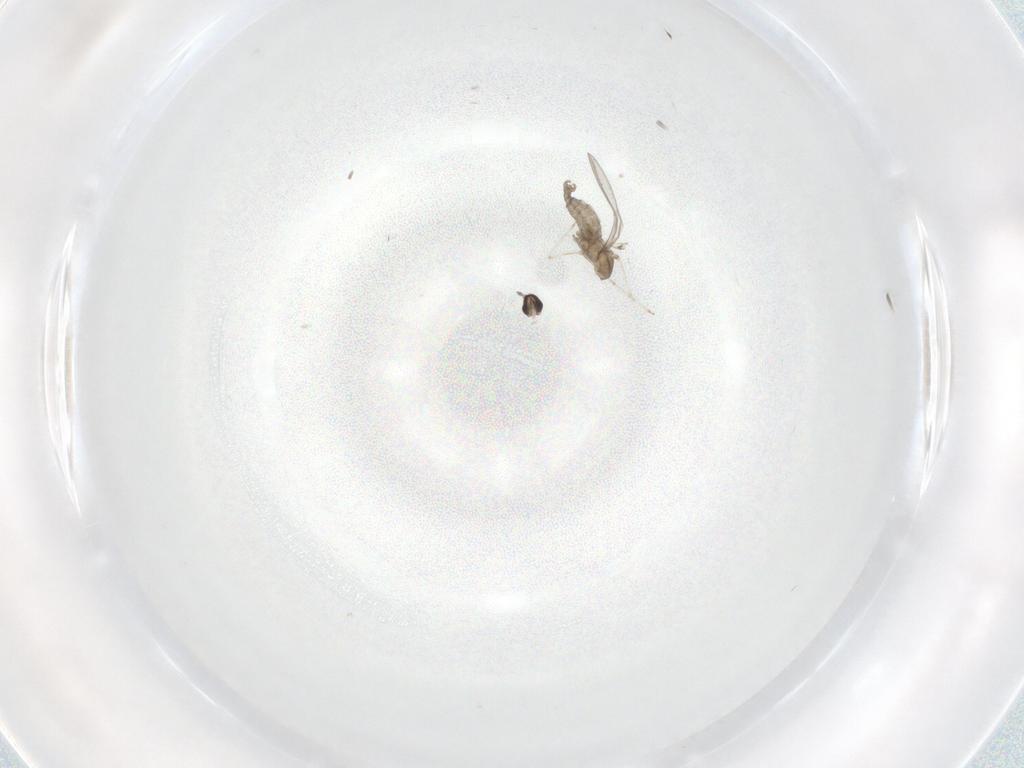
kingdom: Animalia
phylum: Arthropoda
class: Insecta
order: Diptera
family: Cecidomyiidae
